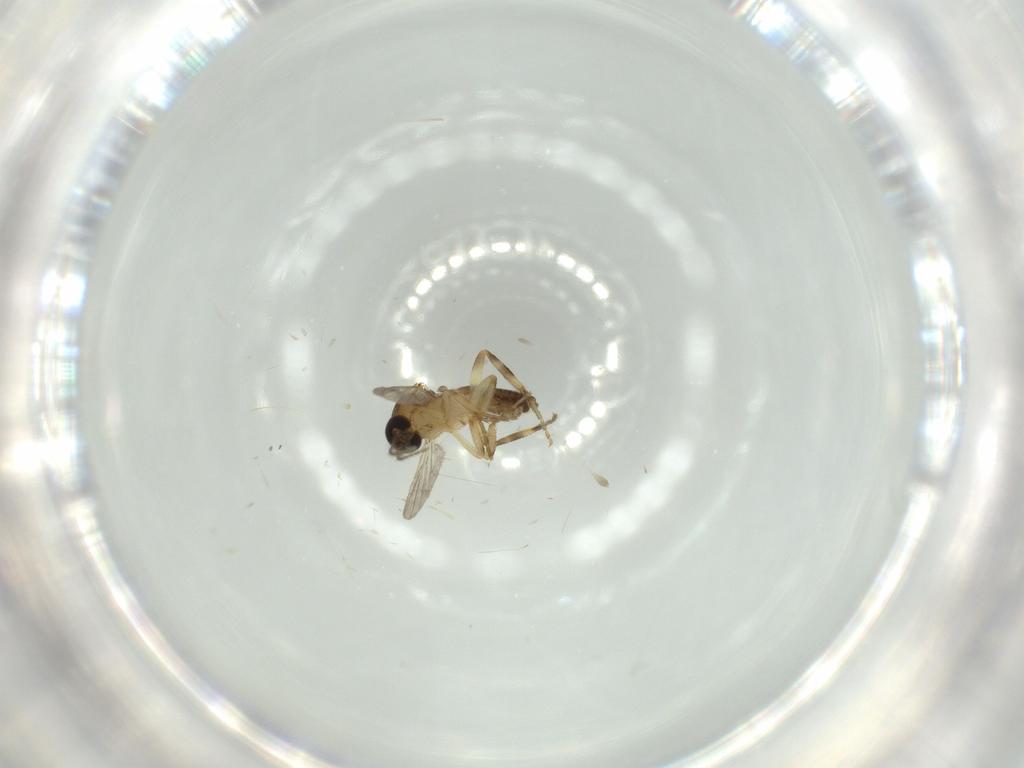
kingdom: Animalia
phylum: Arthropoda
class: Insecta
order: Diptera
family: Ceratopogonidae
